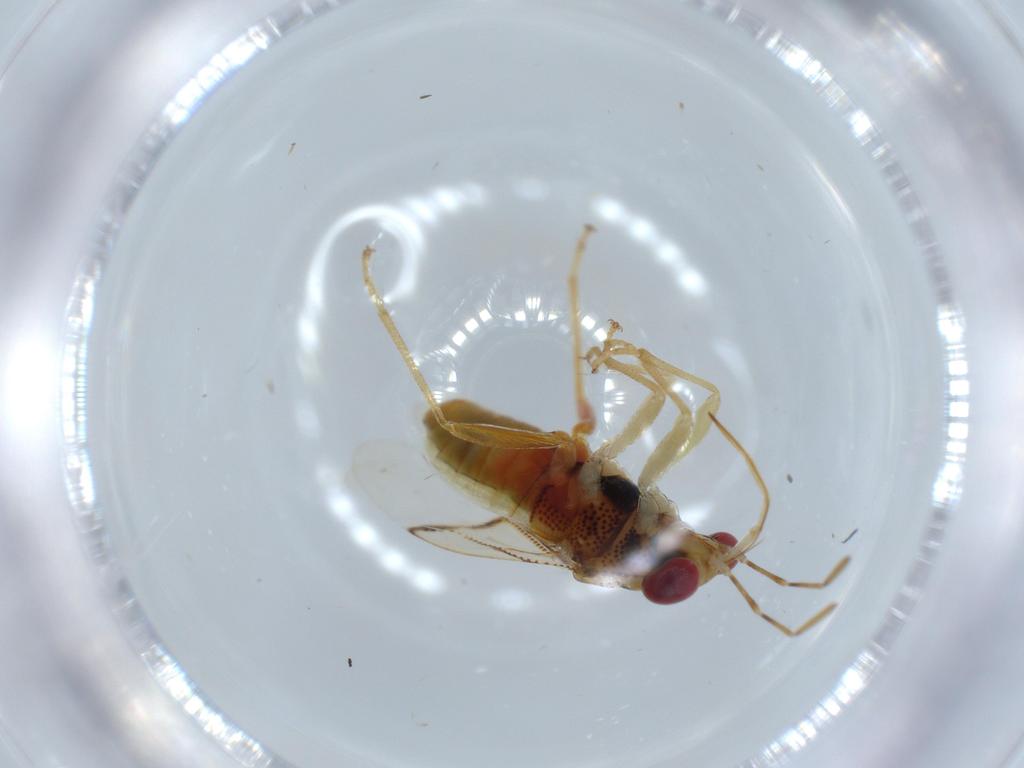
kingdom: Animalia
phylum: Arthropoda
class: Insecta
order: Hemiptera
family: Geocoridae
